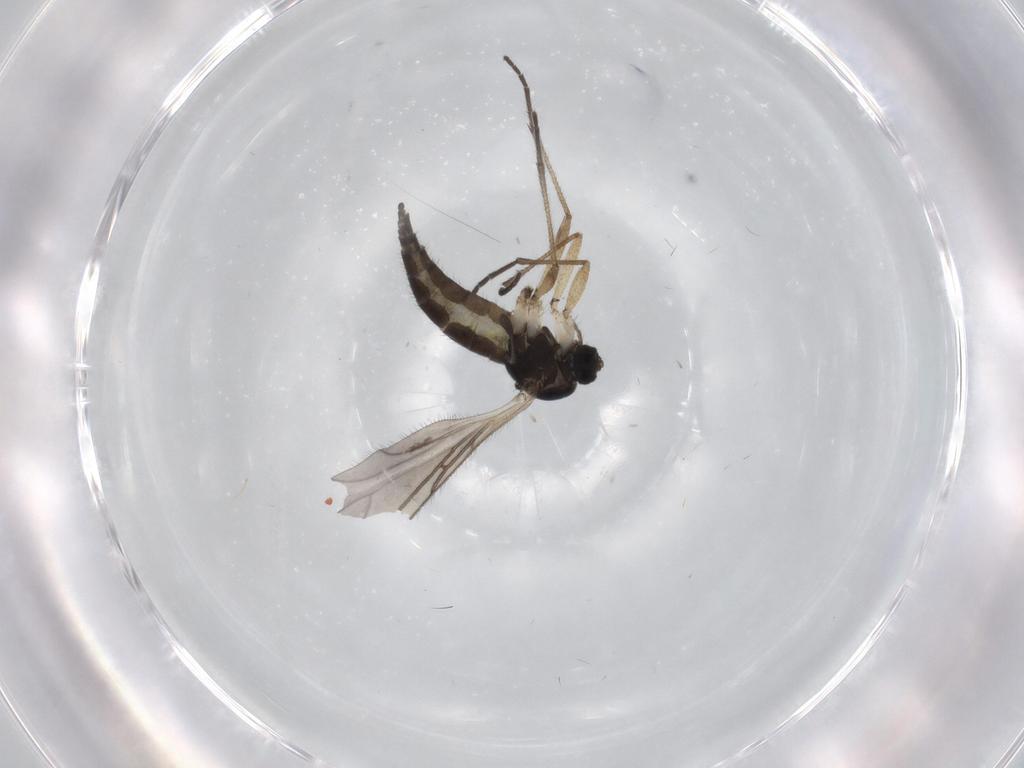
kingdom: Animalia
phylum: Arthropoda
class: Insecta
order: Diptera
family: Sciaridae
